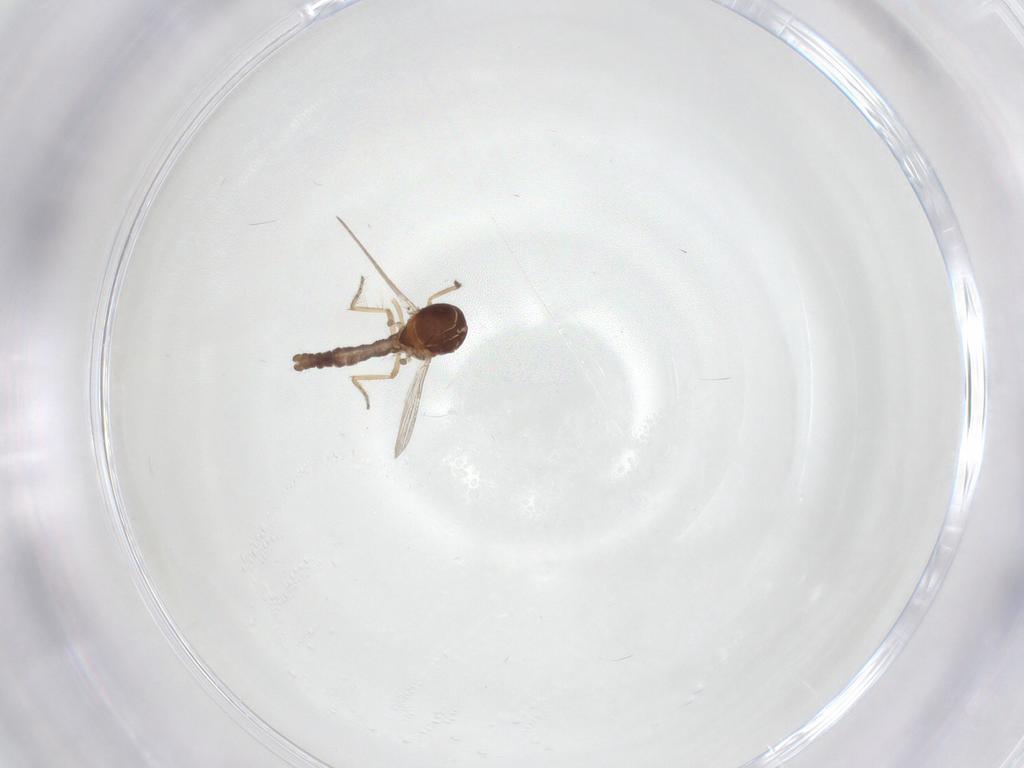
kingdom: Animalia
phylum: Arthropoda
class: Insecta
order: Diptera
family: Ceratopogonidae
